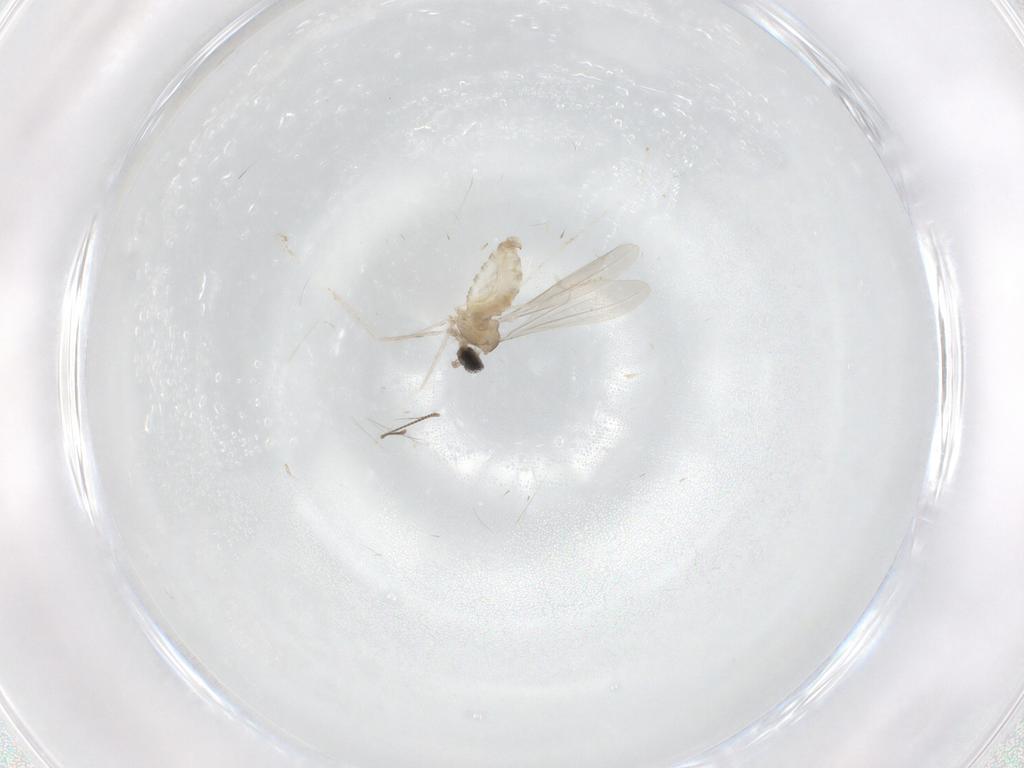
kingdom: Animalia
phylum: Arthropoda
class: Insecta
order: Diptera
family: Cecidomyiidae
